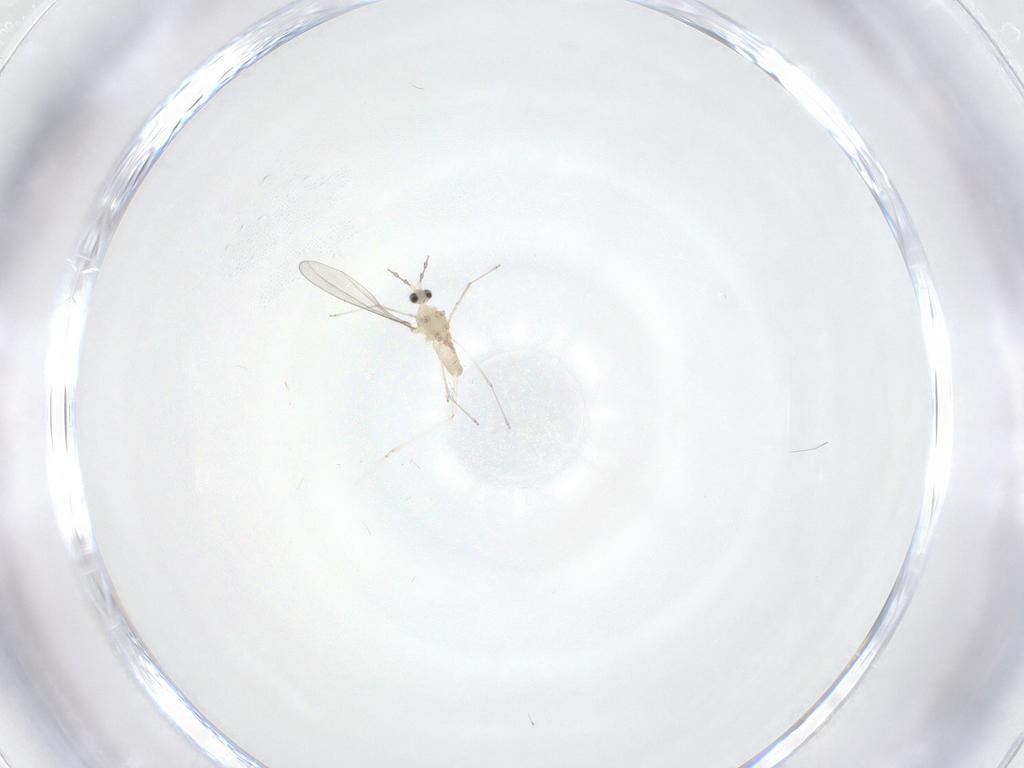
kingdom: Animalia
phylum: Arthropoda
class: Insecta
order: Diptera
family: Cecidomyiidae
